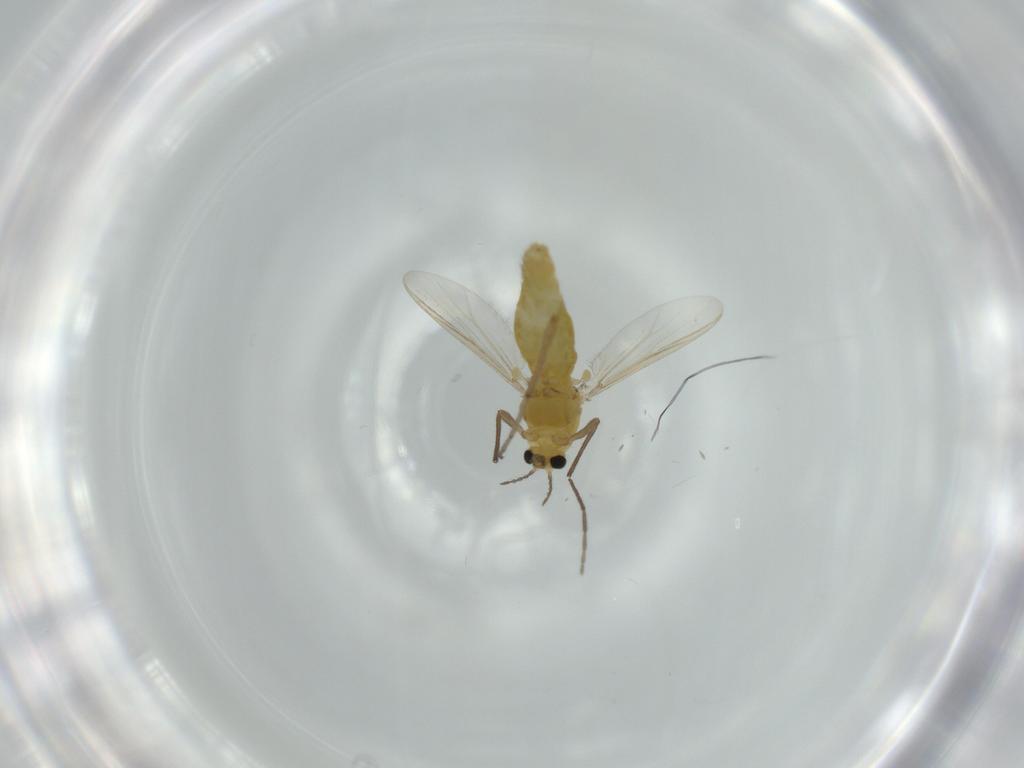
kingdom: Animalia
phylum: Arthropoda
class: Insecta
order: Diptera
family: Chironomidae
